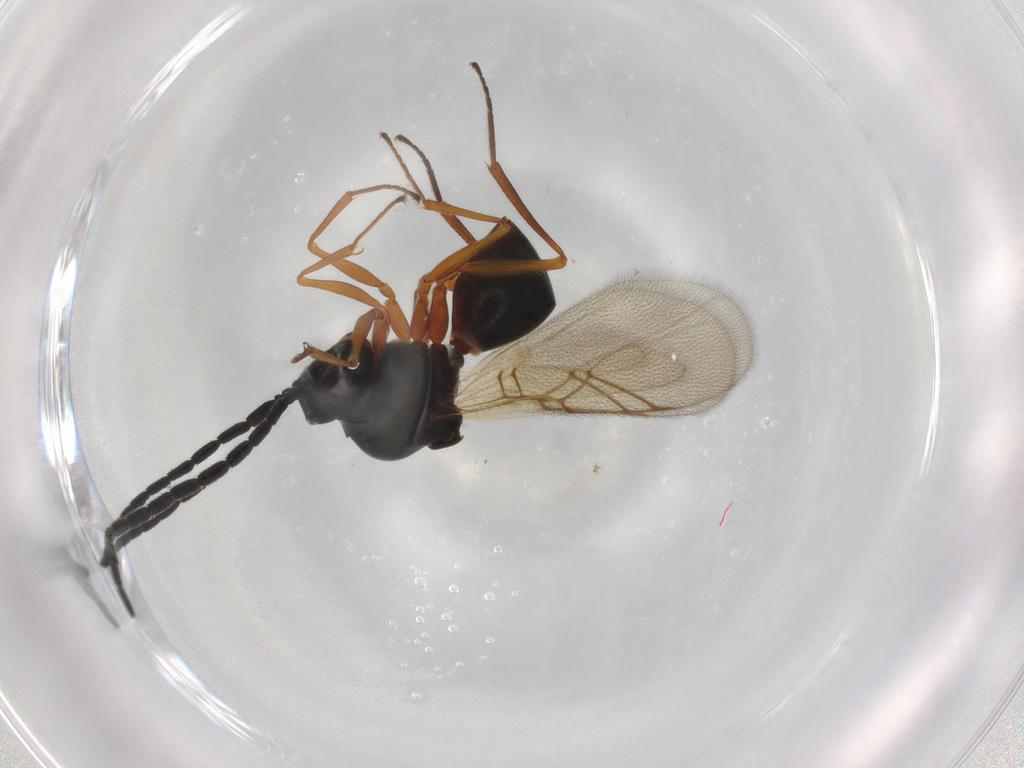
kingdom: Animalia
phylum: Arthropoda
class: Insecta
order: Hymenoptera
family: Figitidae
